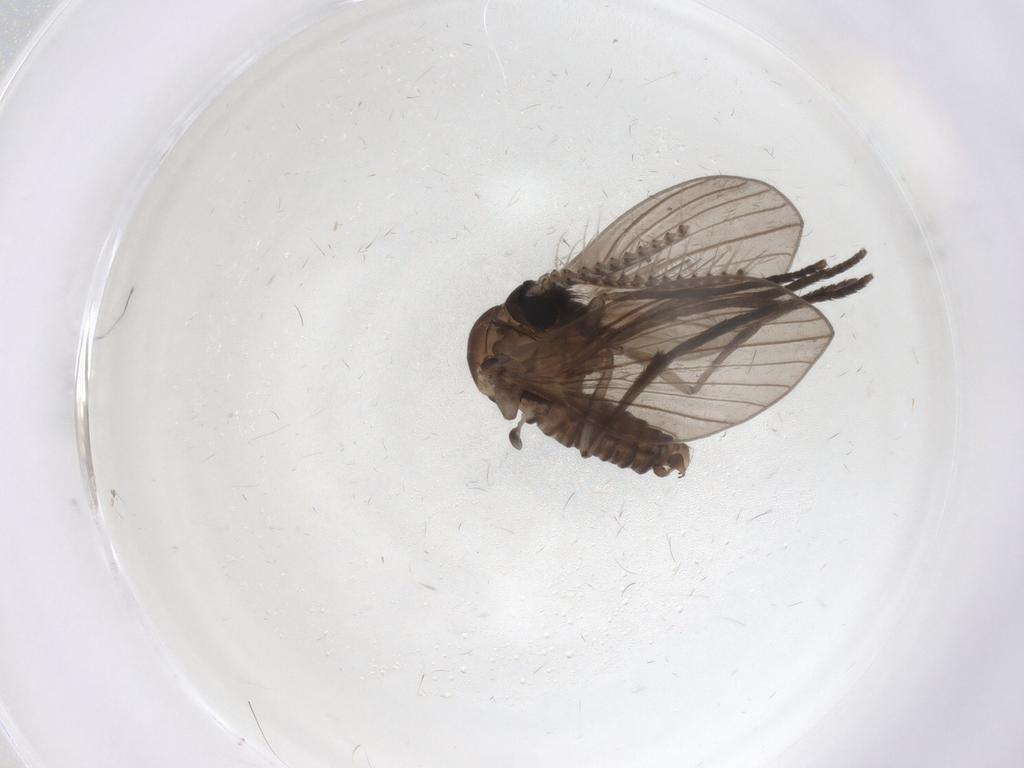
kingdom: Animalia
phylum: Arthropoda
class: Insecta
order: Diptera
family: Psychodidae
